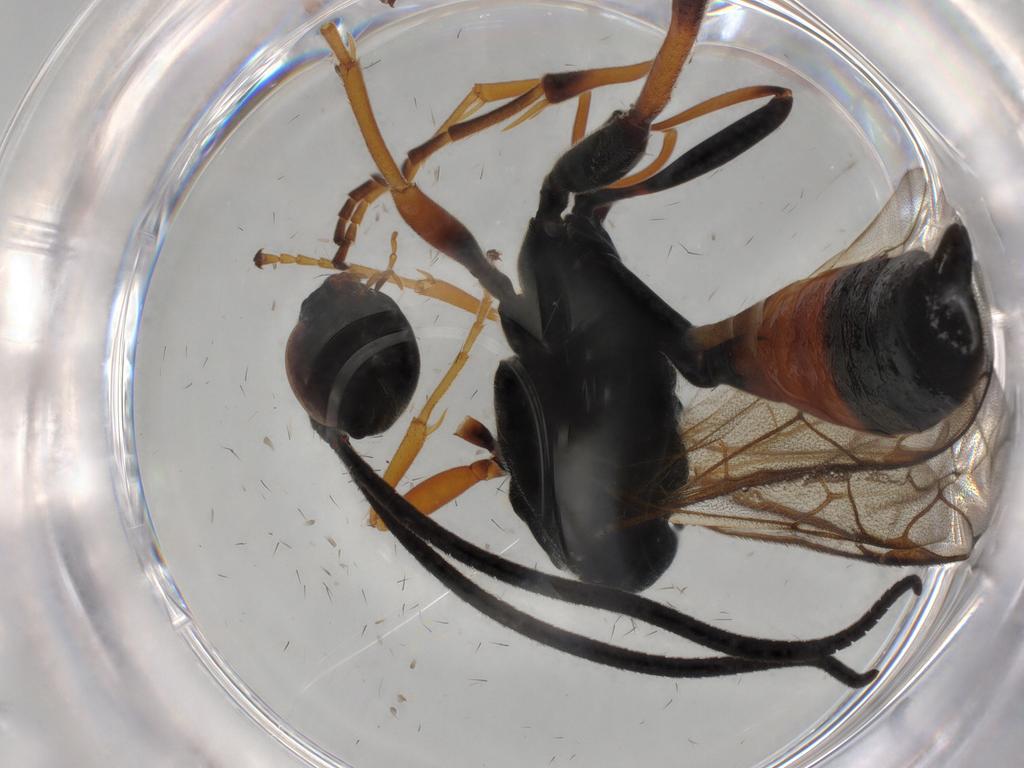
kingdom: Animalia
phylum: Arthropoda
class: Insecta
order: Hymenoptera
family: Ichneumonidae
